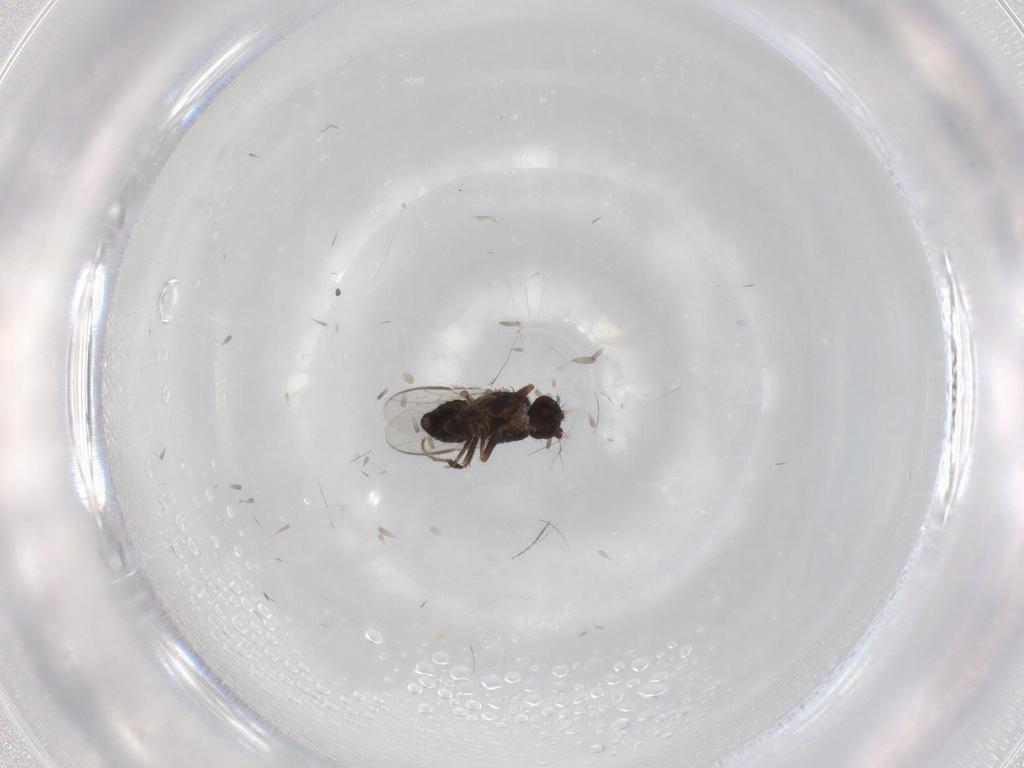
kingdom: Animalia
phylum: Arthropoda
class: Insecta
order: Diptera
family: Sphaeroceridae
